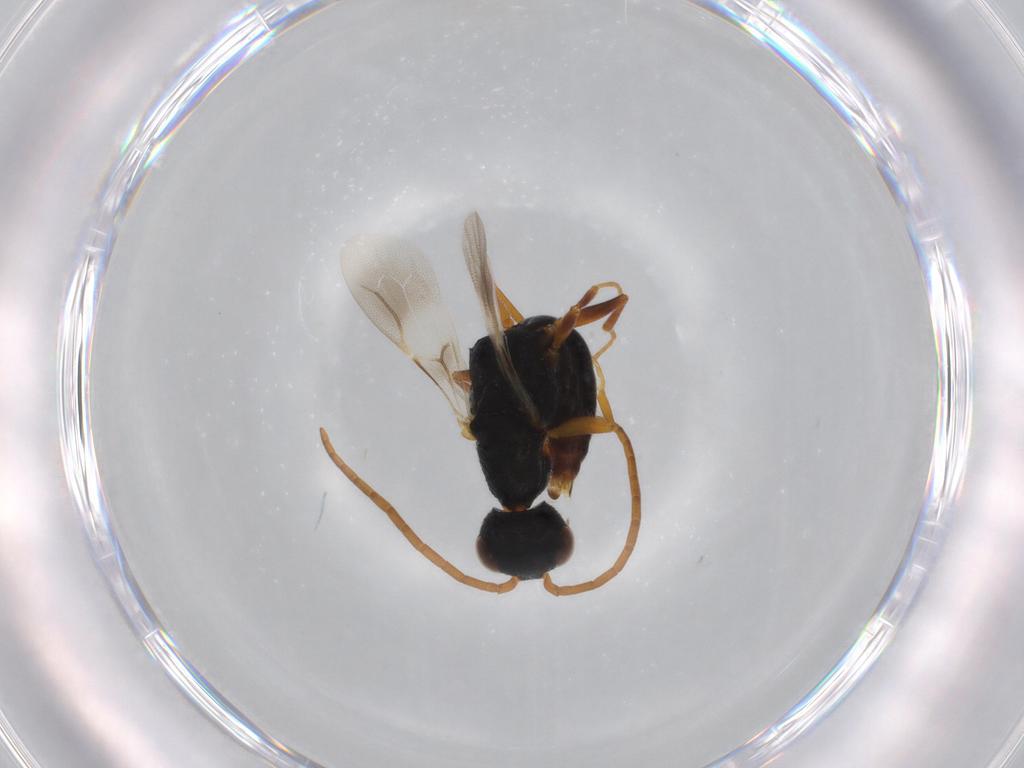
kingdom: Animalia
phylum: Arthropoda
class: Insecta
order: Hymenoptera
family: Bethylidae
